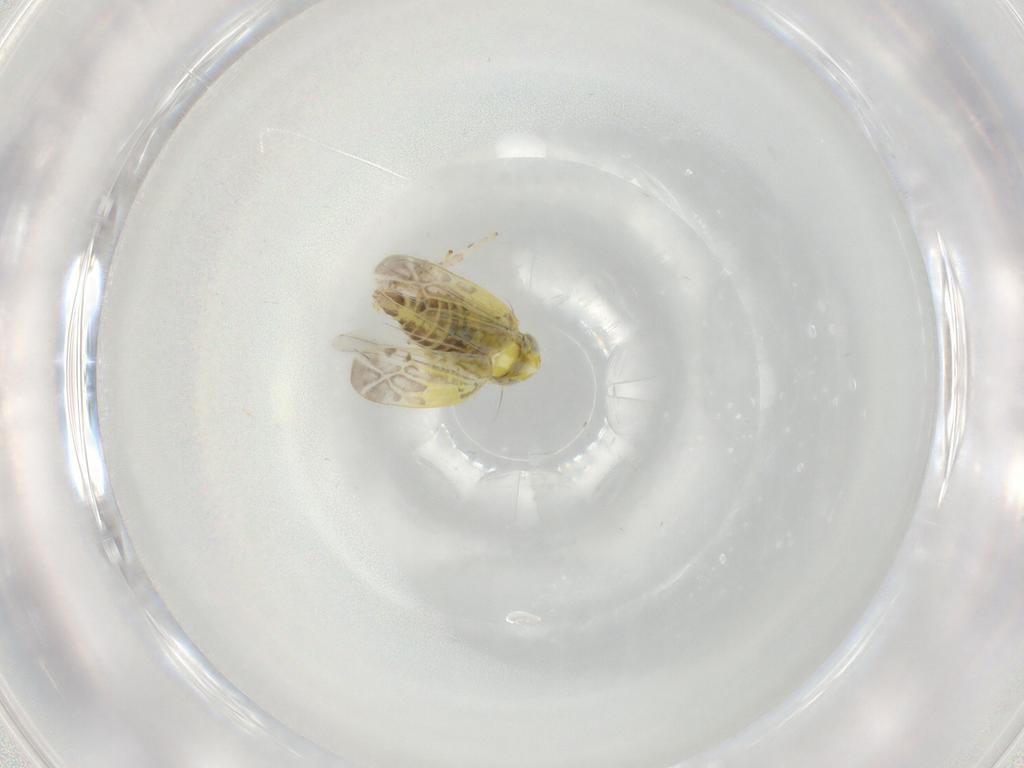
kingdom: Animalia
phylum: Arthropoda
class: Insecta
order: Hemiptera
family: Cicadellidae
